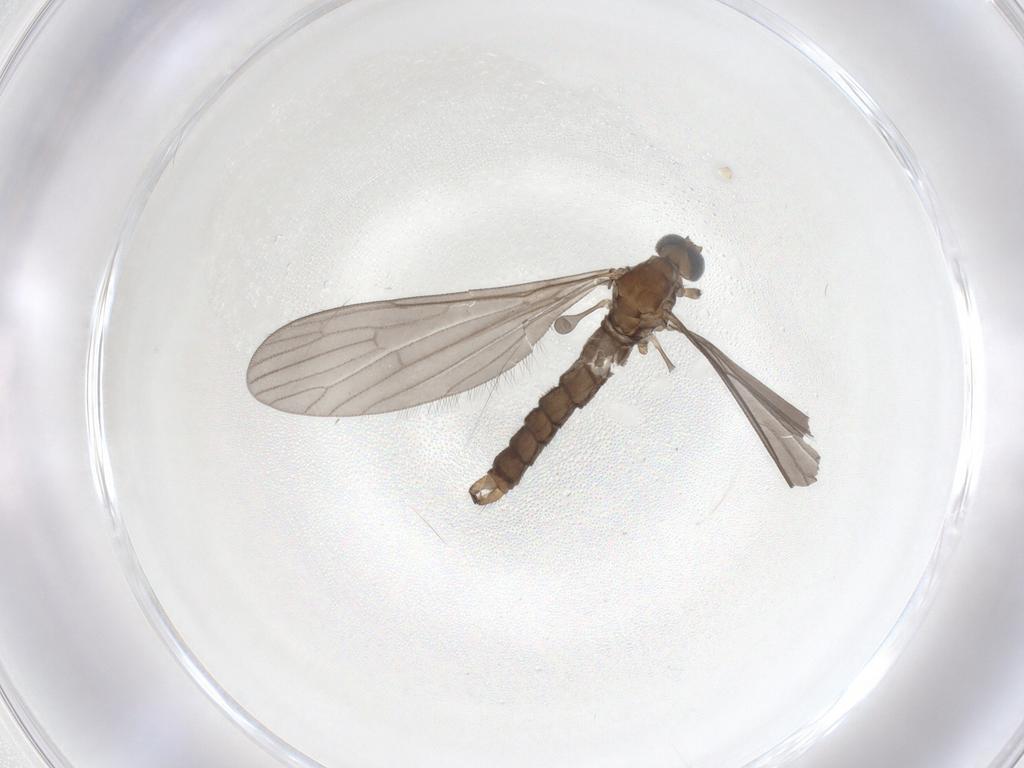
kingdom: Animalia
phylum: Arthropoda
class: Insecta
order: Diptera
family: Limoniidae
